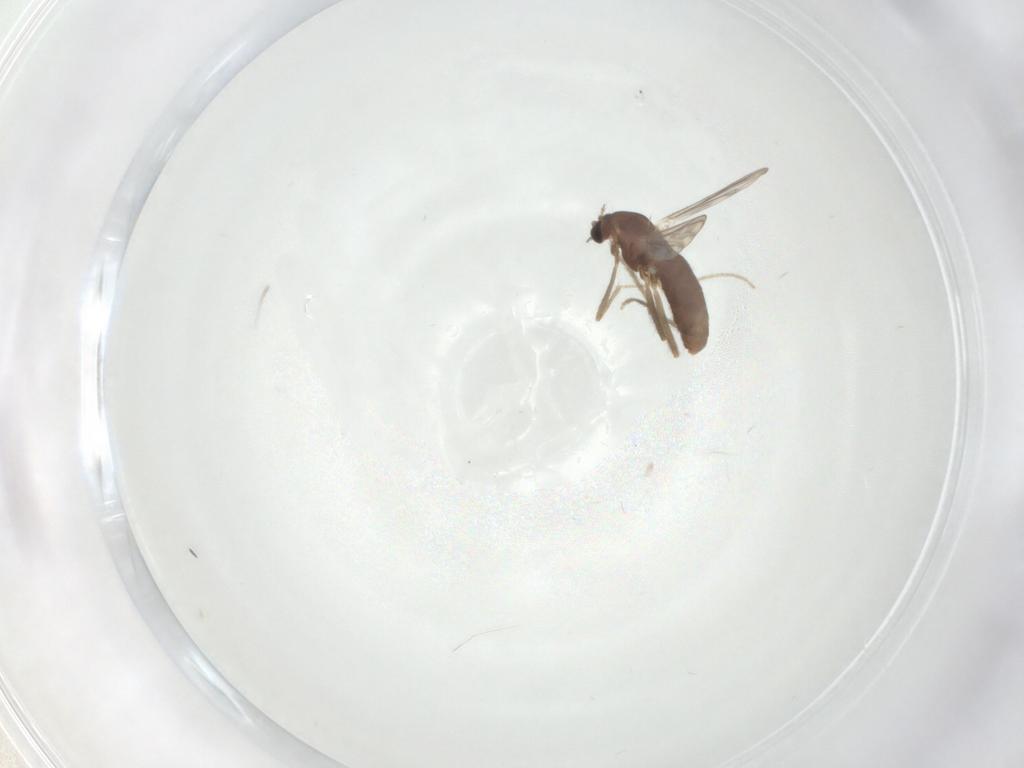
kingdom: Animalia
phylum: Arthropoda
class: Insecta
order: Diptera
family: Chironomidae
